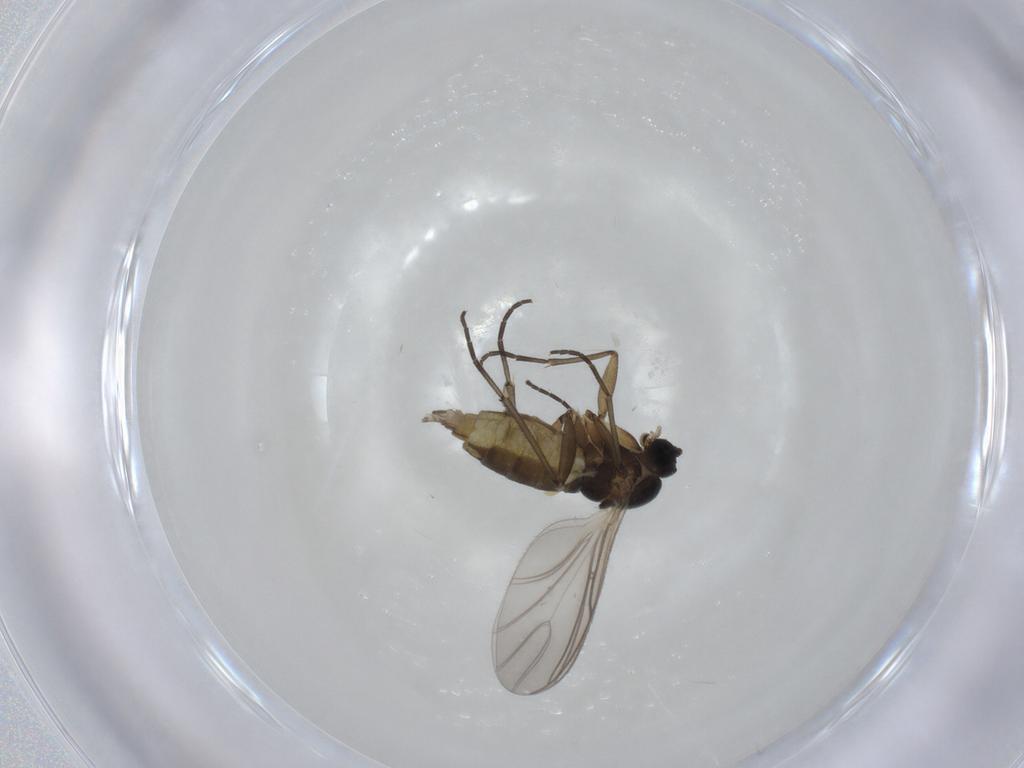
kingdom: Animalia
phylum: Arthropoda
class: Insecta
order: Diptera
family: Sciaridae
